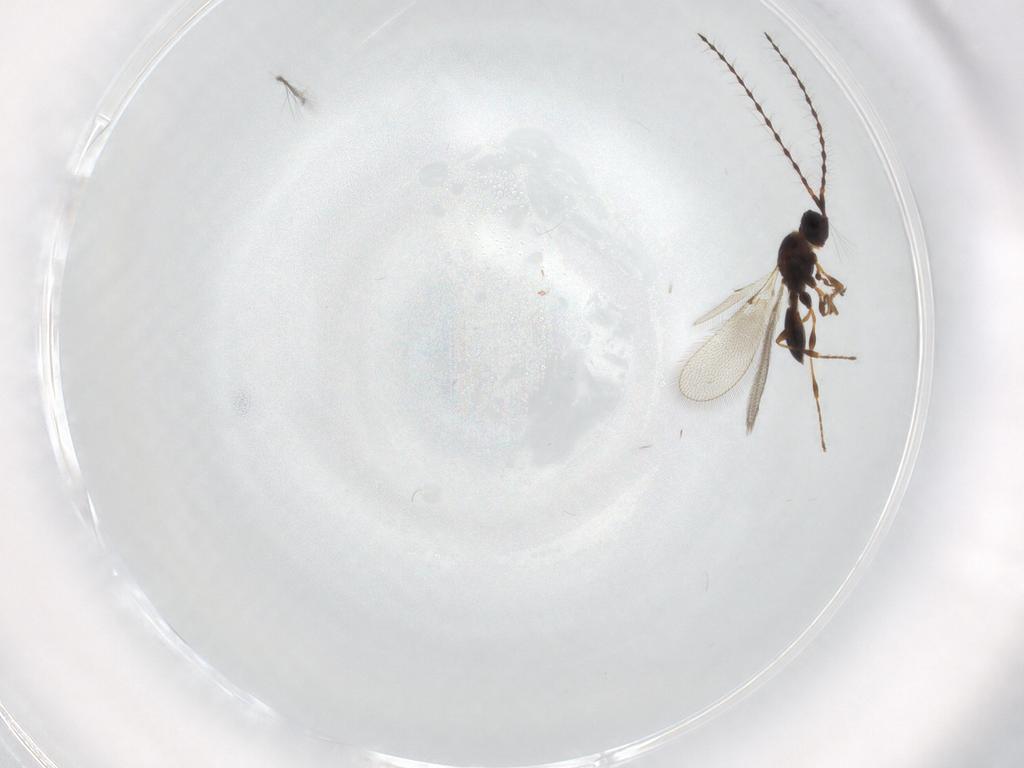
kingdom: Animalia
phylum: Arthropoda
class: Insecta
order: Hymenoptera
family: Diapriidae
